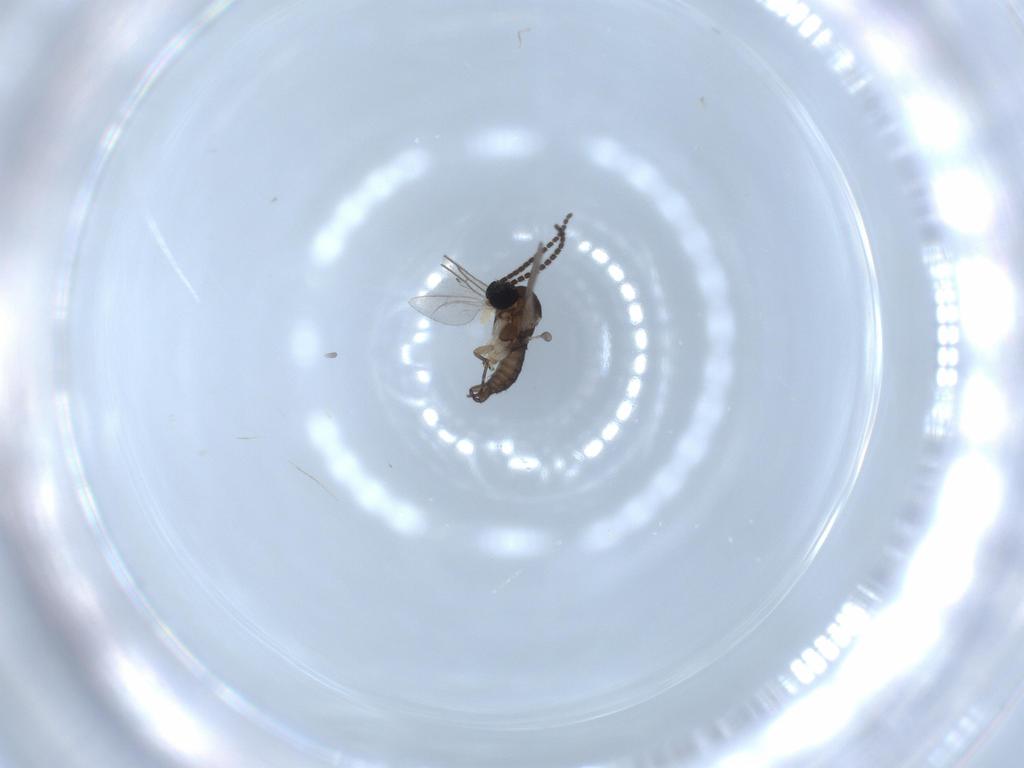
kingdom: Animalia
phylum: Arthropoda
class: Insecta
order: Diptera
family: Sciaridae
